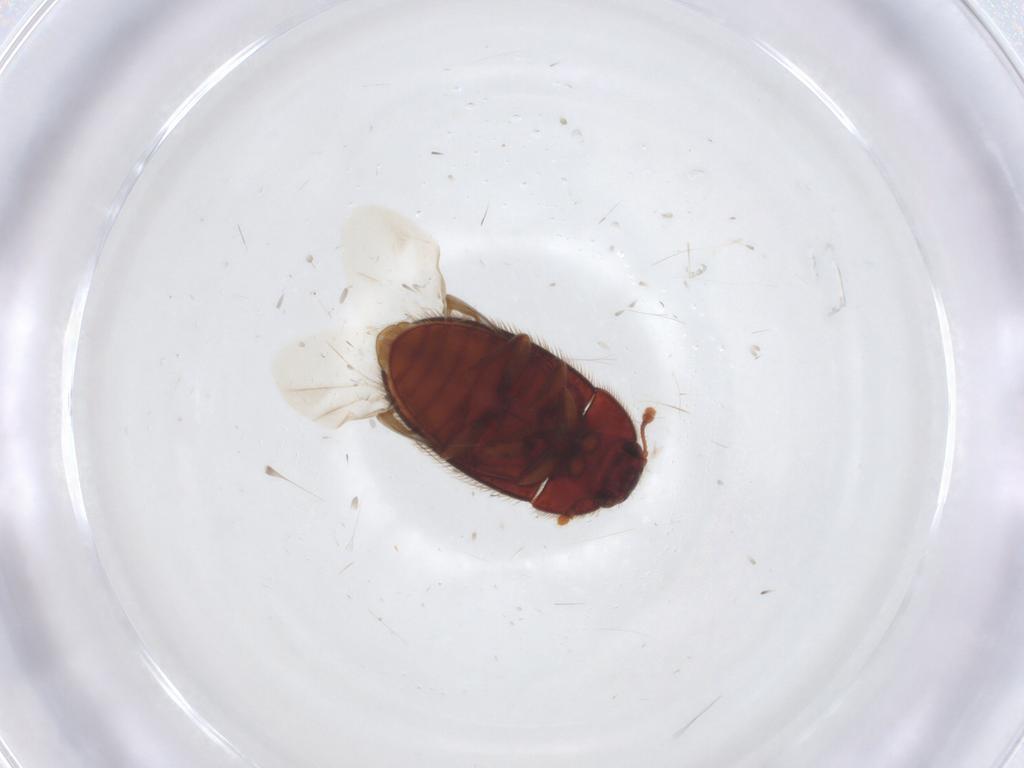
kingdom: Animalia
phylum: Arthropoda
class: Insecta
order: Coleoptera
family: Biphyllidae
